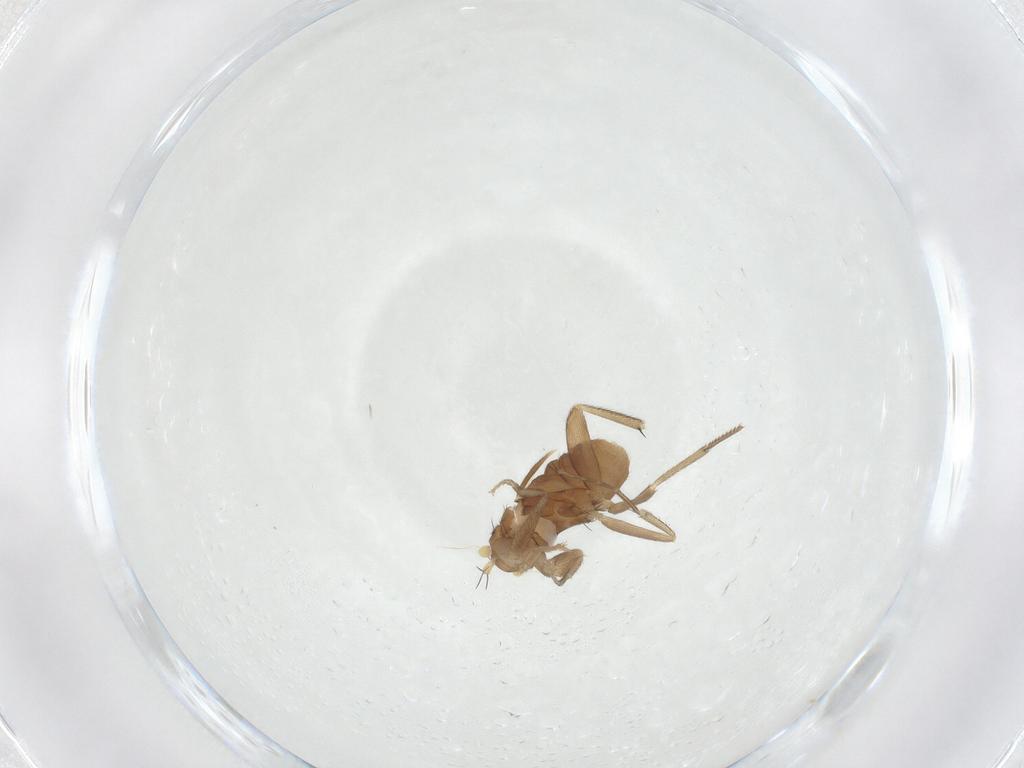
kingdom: Animalia
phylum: Arthropoda
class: Insecta
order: Diptera
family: Phoridae
